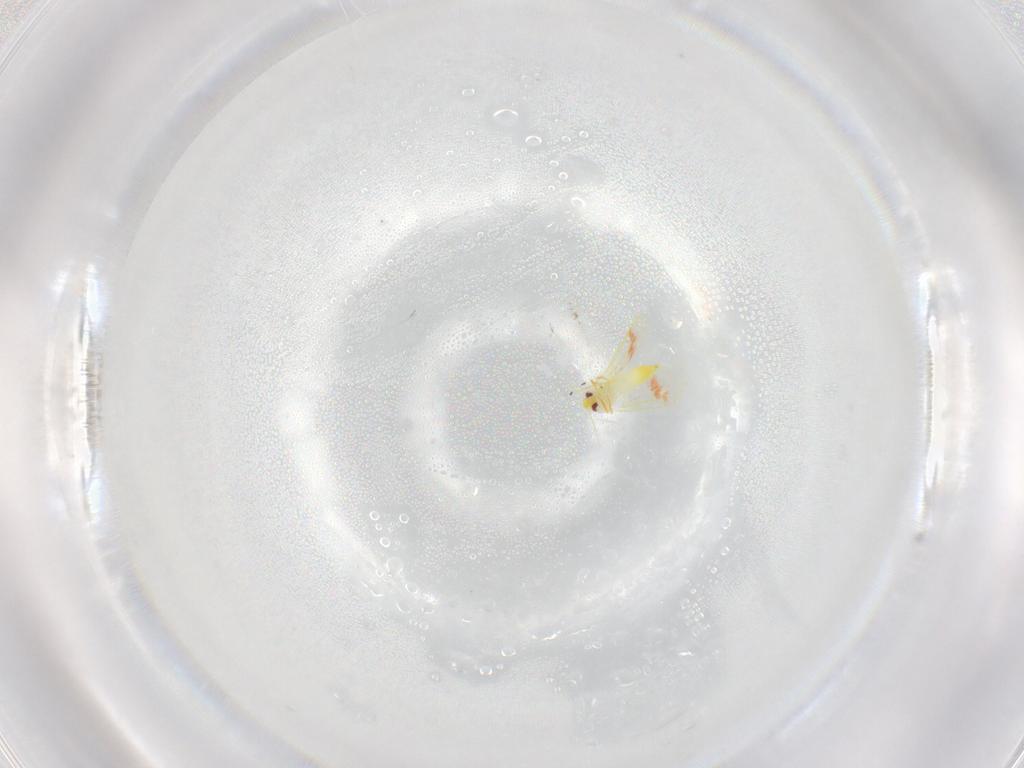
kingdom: Animalia
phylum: Arthropoda
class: Insecta
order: Hemiptera
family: Aleyrodidae
